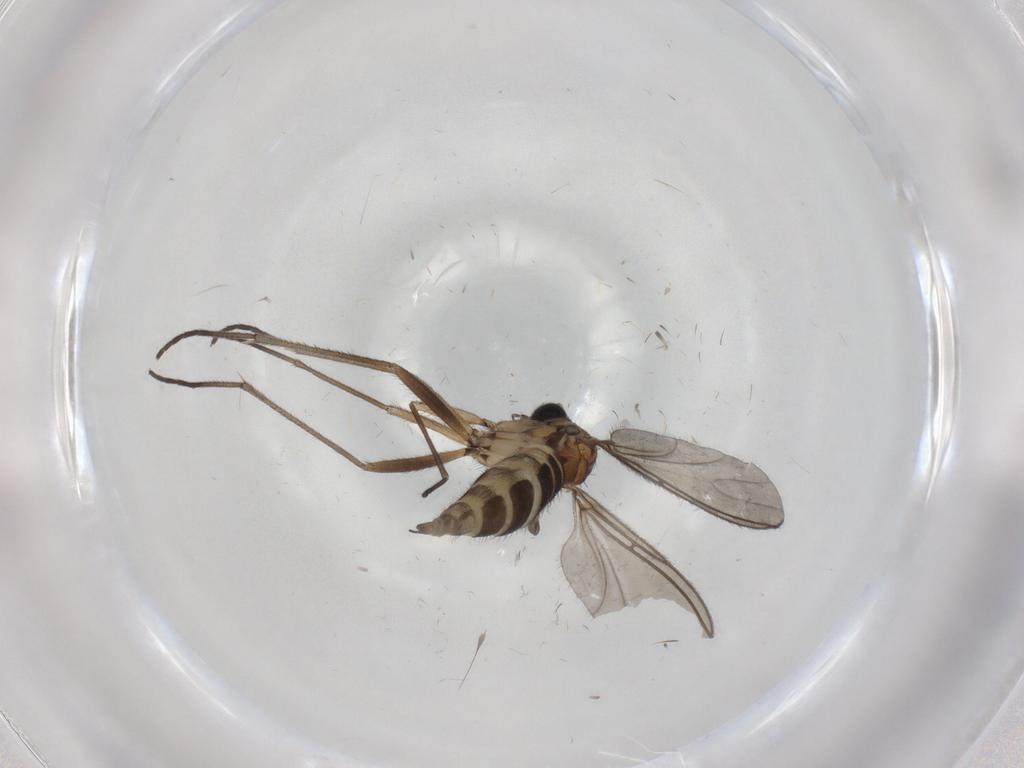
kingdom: Animalia
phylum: Arthropoda
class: Insecta
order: Diptera
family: Sciaridae
